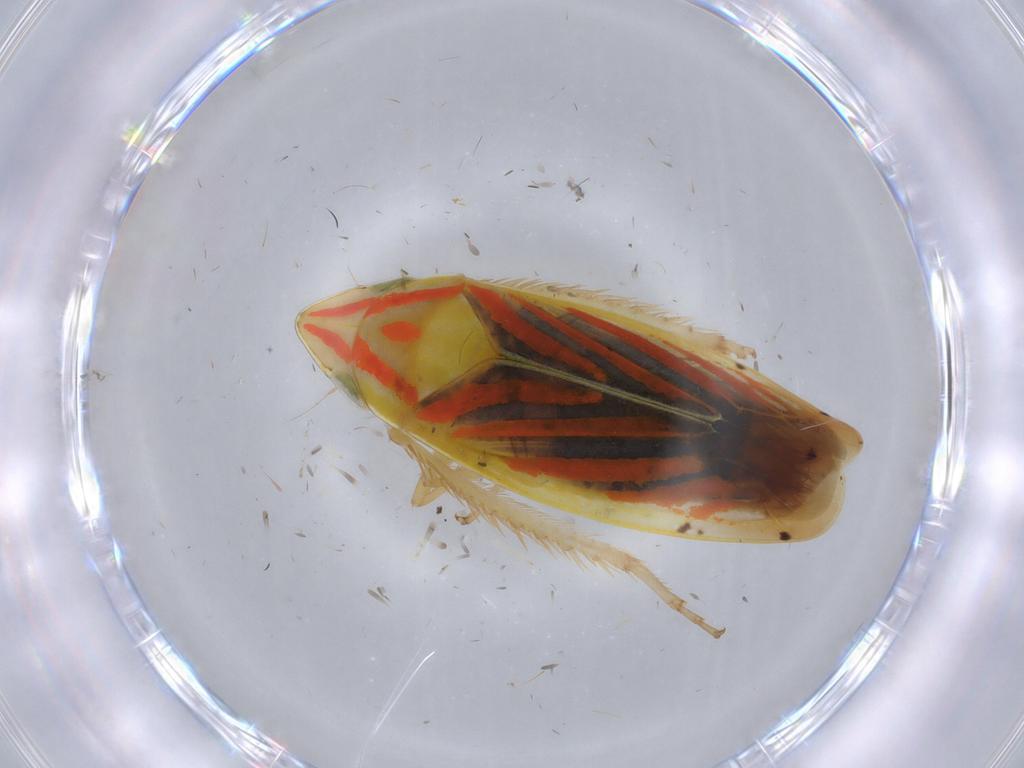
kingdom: Animalia
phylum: Arthropoda
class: Insecta
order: Hemiptera
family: Cicadellidae
